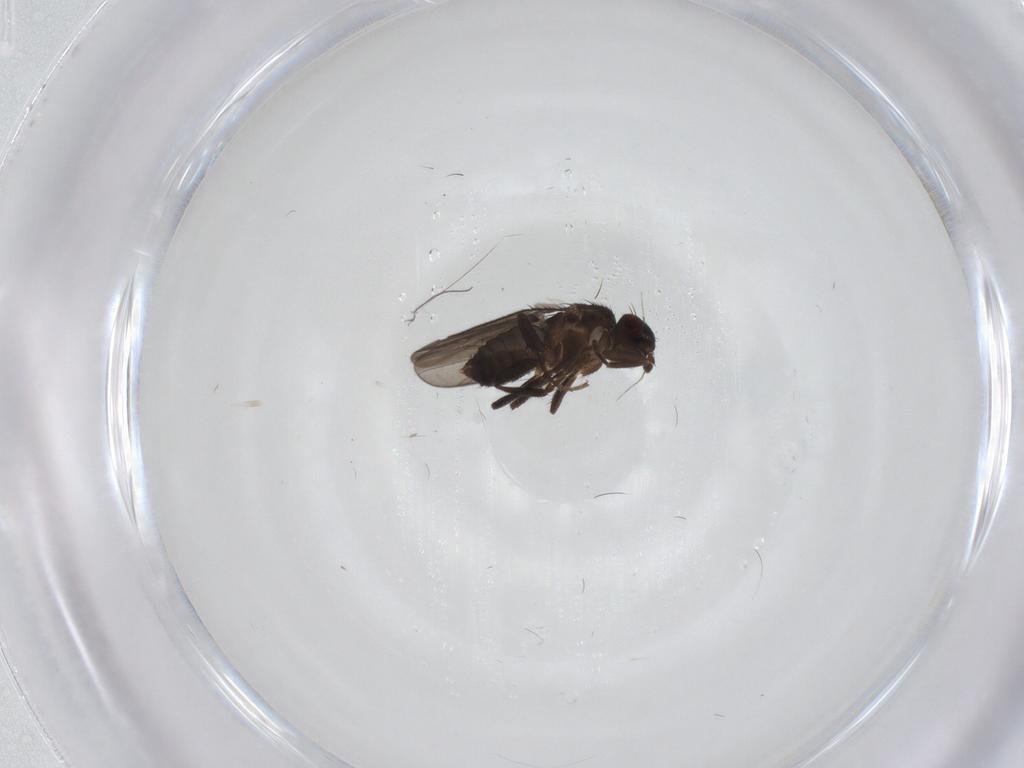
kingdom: Animalia
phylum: Arthropoda
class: Insecta
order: Diptera
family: Sphaeroceridae
